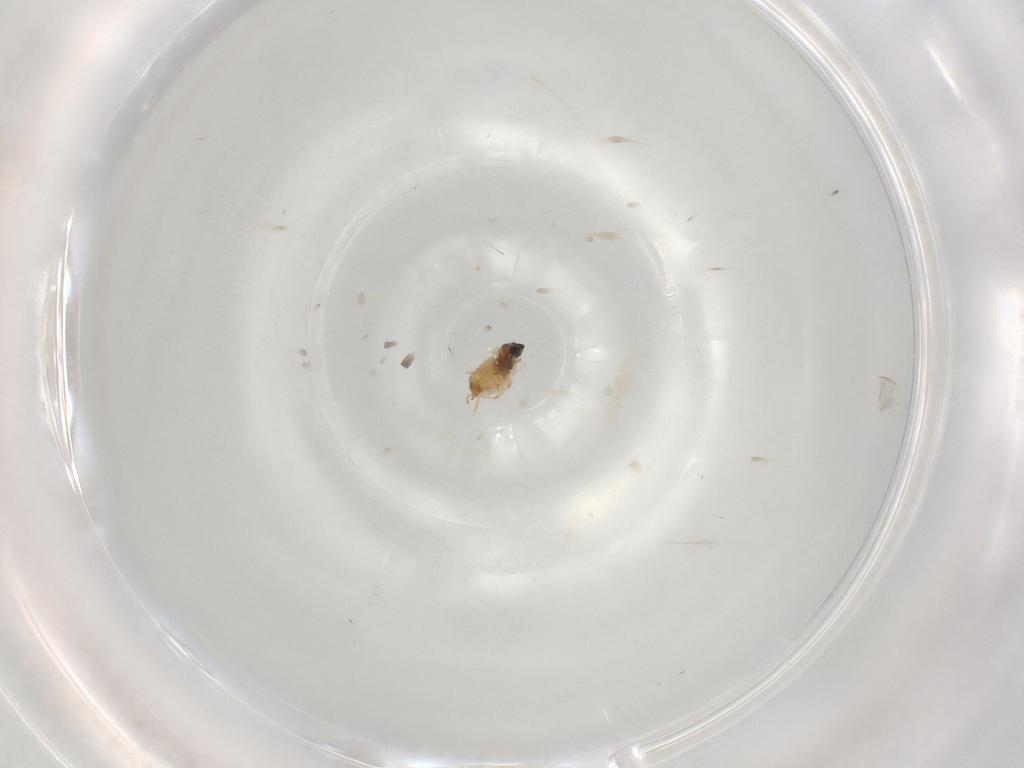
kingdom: Animalia
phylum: Arthropoda
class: Insecta
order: Diptera
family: Cecidomyiidae
